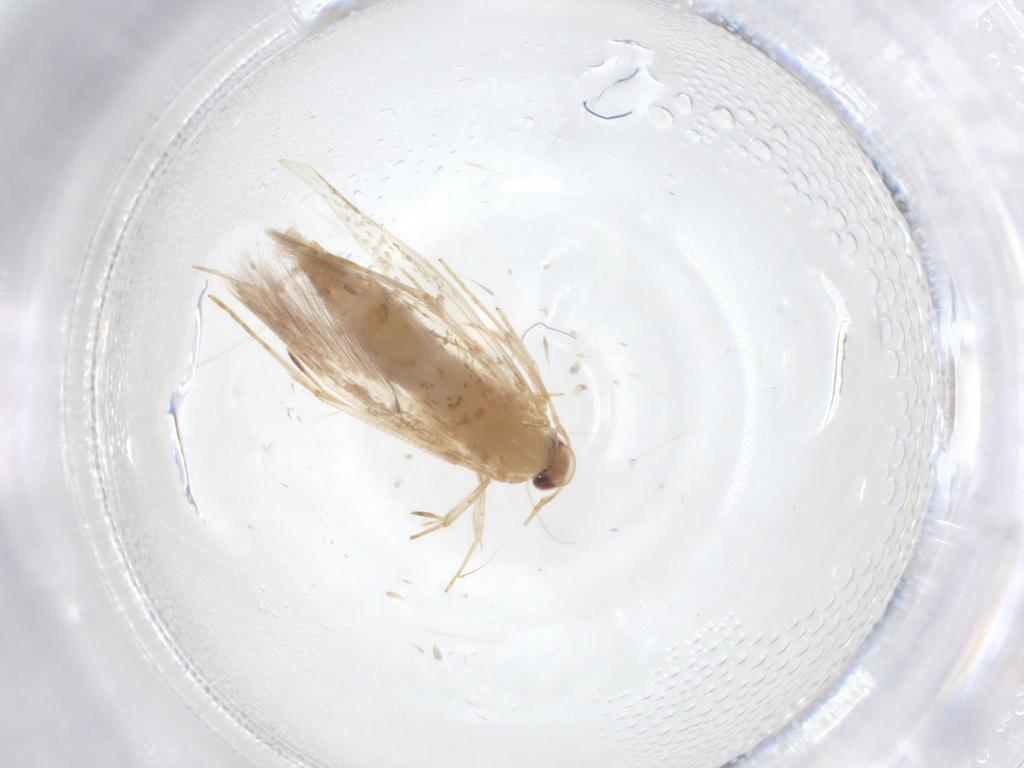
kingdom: Animalia
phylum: Arthropoda
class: Insecta
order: Lepidoptera
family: Erebidae
